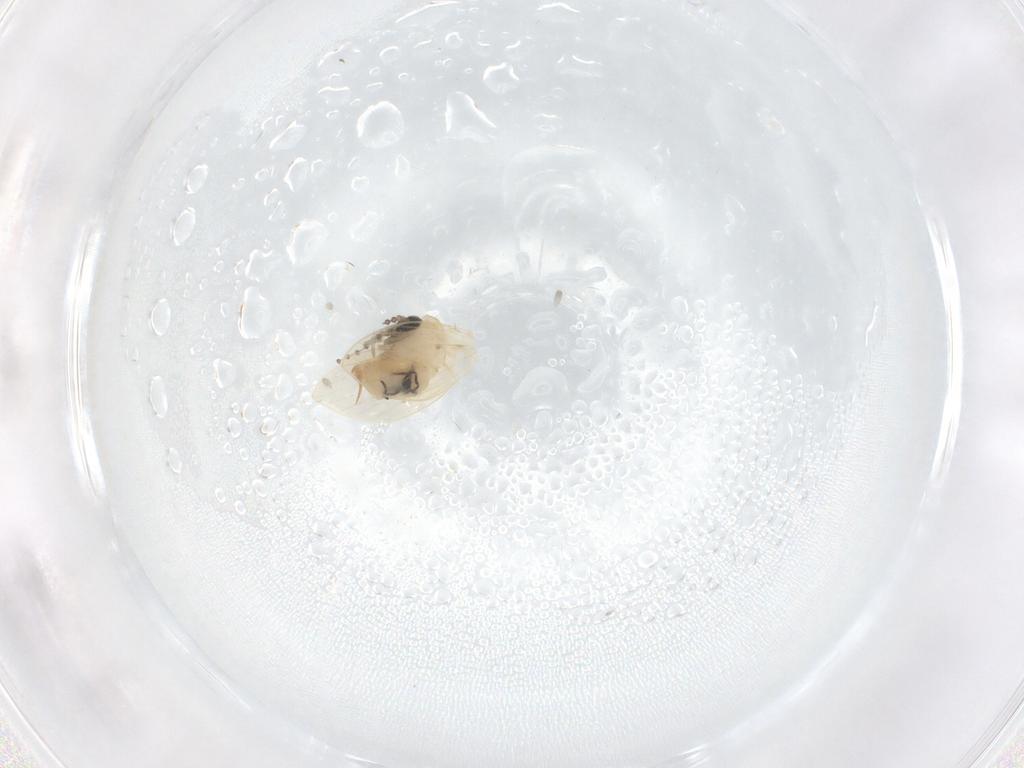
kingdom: Animalia
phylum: Arthropoda
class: Insecta
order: Diptera
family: Psychodidae
